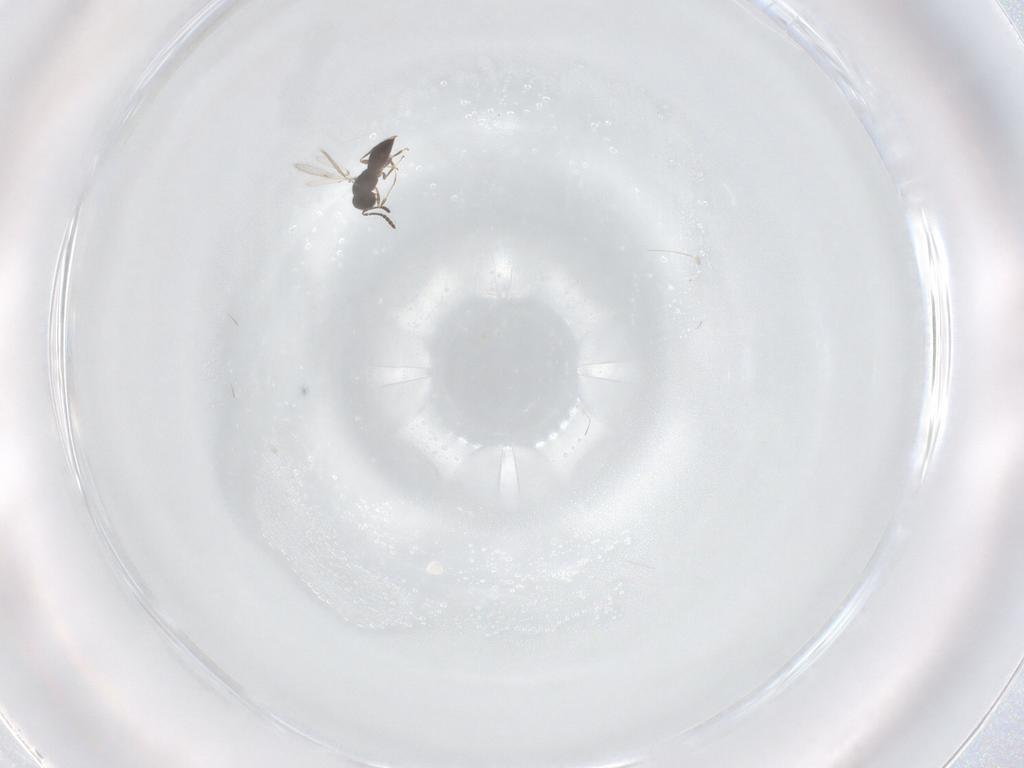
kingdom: Animalia
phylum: Arthropoda
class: Insecta
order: Hymenoptera
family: Scelionidae
